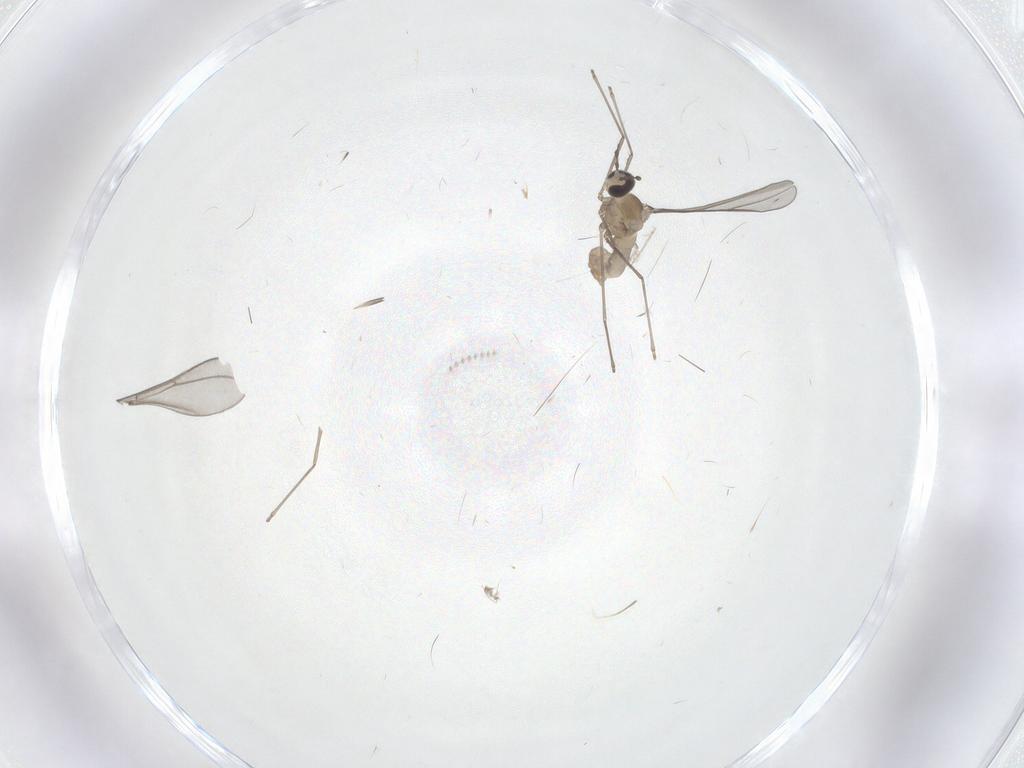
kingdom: Animalia
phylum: Arthropoda
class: Insecta
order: Diptera
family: Cecidomyiidae
